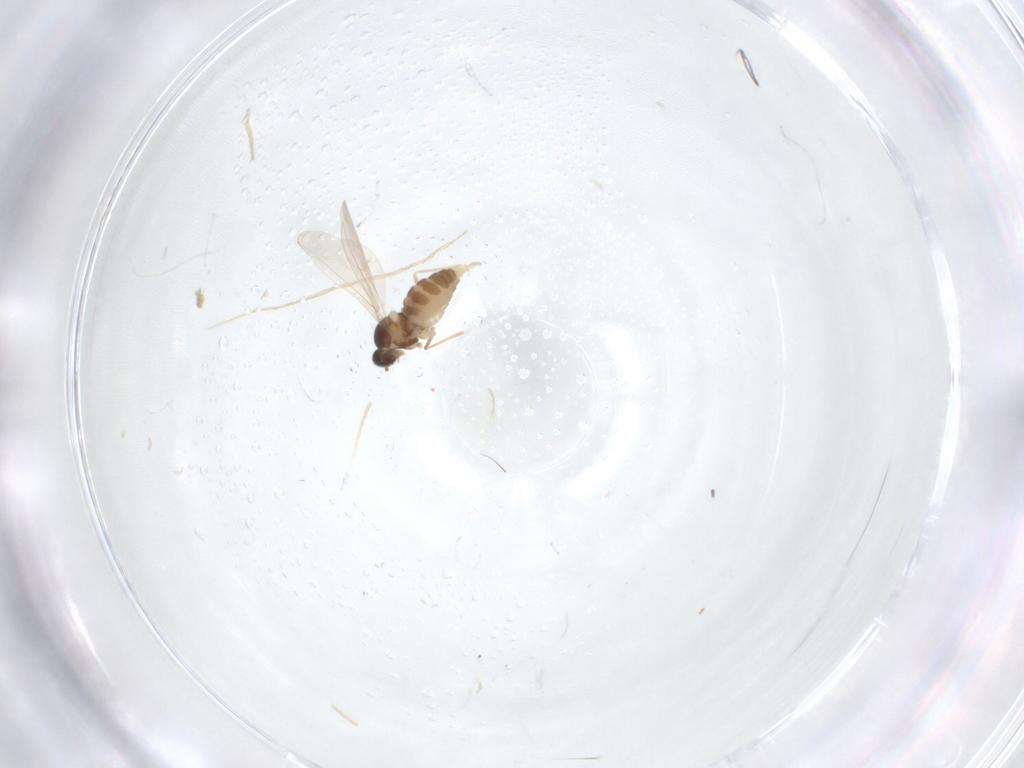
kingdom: Animalia
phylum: Arthropoda
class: Insecta
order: Diptera
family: Cecidomyiidae
